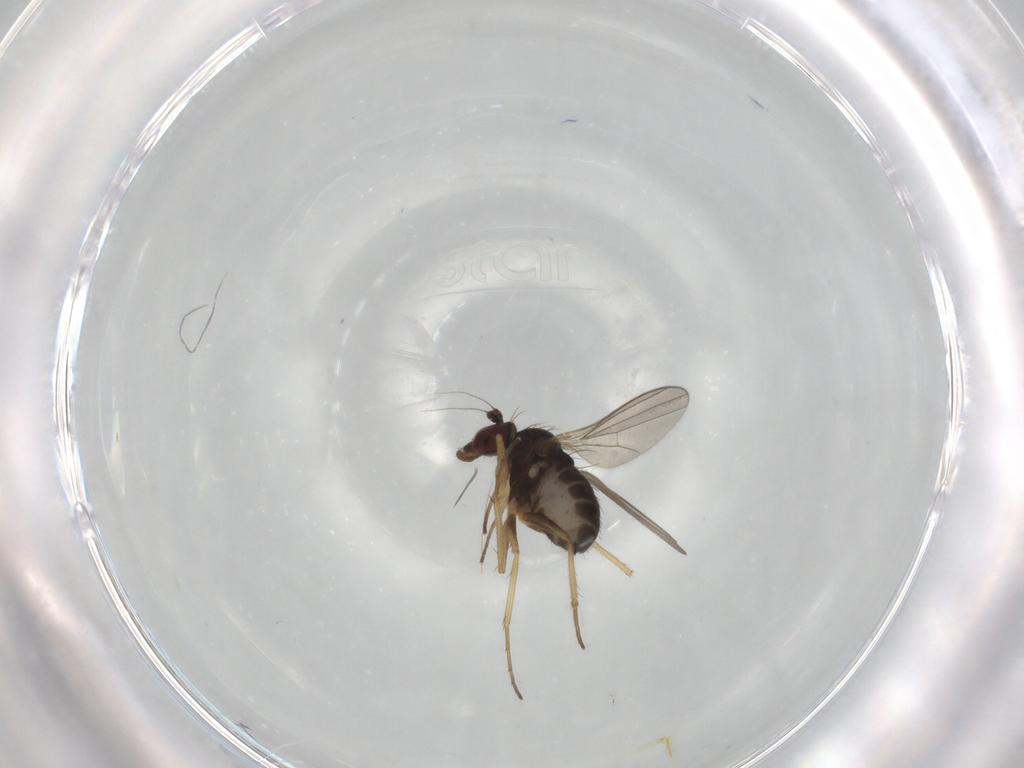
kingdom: Animalia
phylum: Arthropoda
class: Insecta
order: Diptera
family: Dolichopodidae
